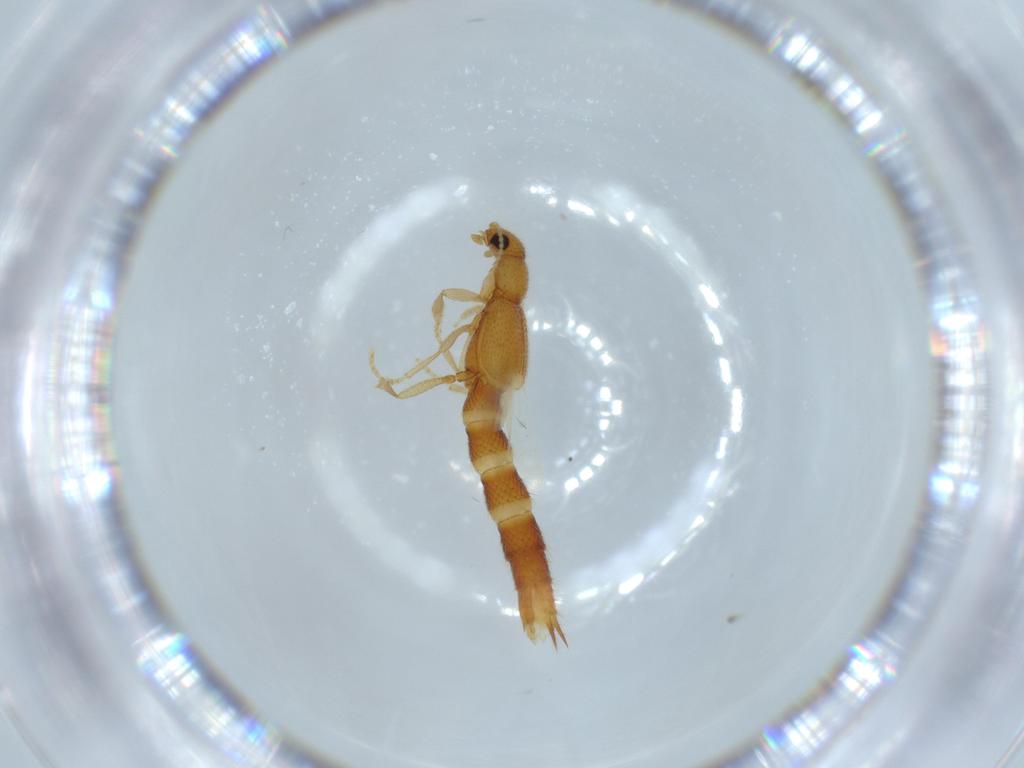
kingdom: Animalia
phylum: Arthropoda
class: Insecta
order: Coleoptera
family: Staphylinidae
